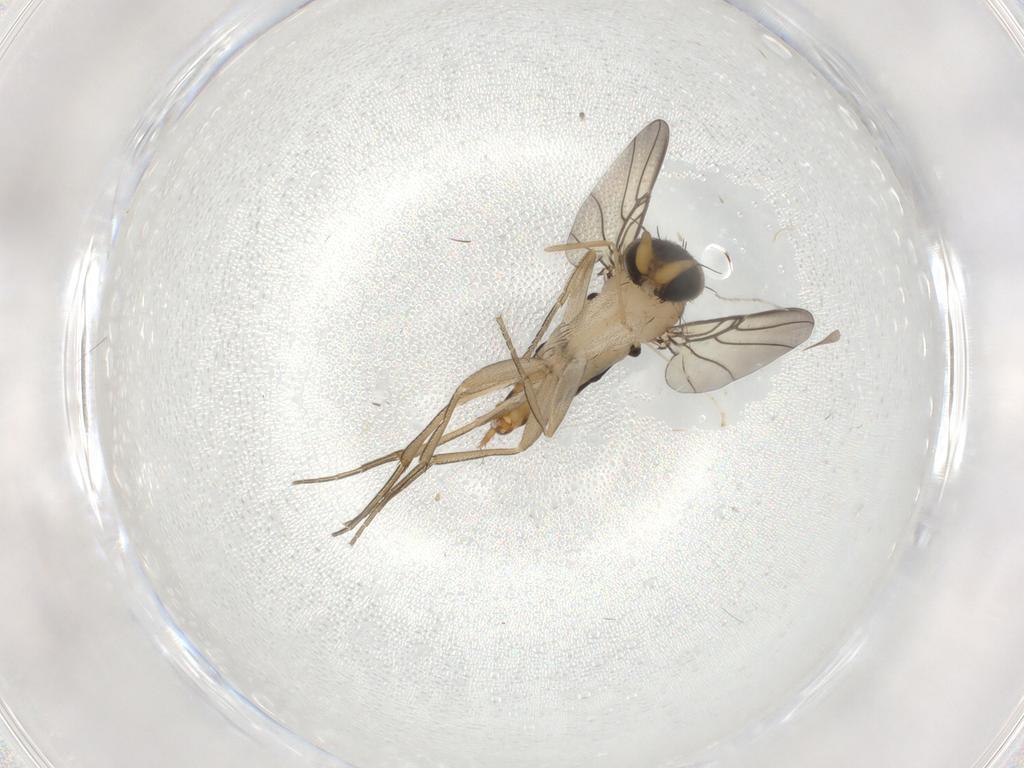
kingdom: Animalia
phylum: Arthropoda
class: Insecta
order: Diptera
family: Phoridae
